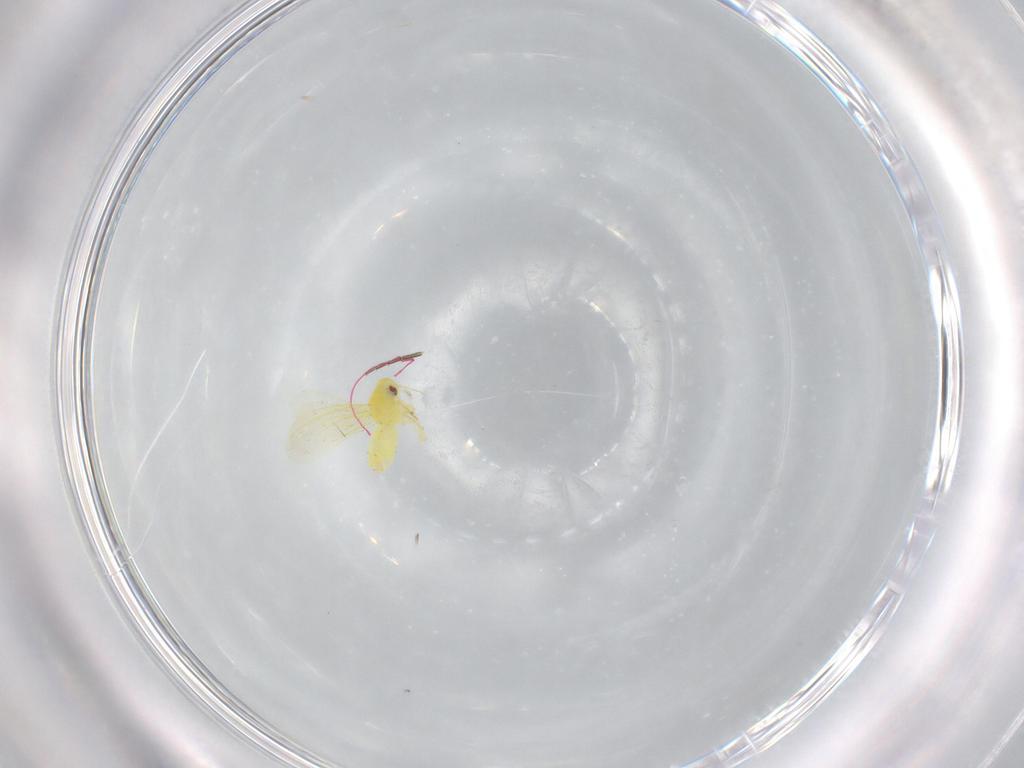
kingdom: Animalia
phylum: Arthropoda
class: Insecta
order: Hemiptera
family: Aleyrodidae
